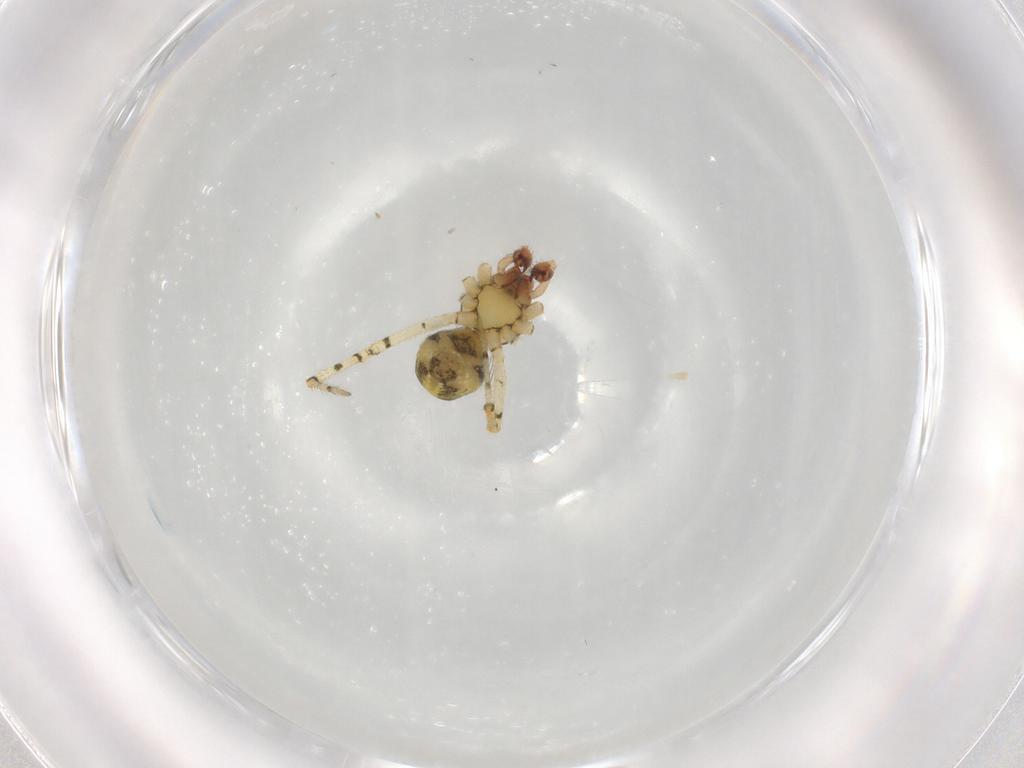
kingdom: Animalia
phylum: Arthropoda
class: Arachnida
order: Araneae
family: Theridiidae
